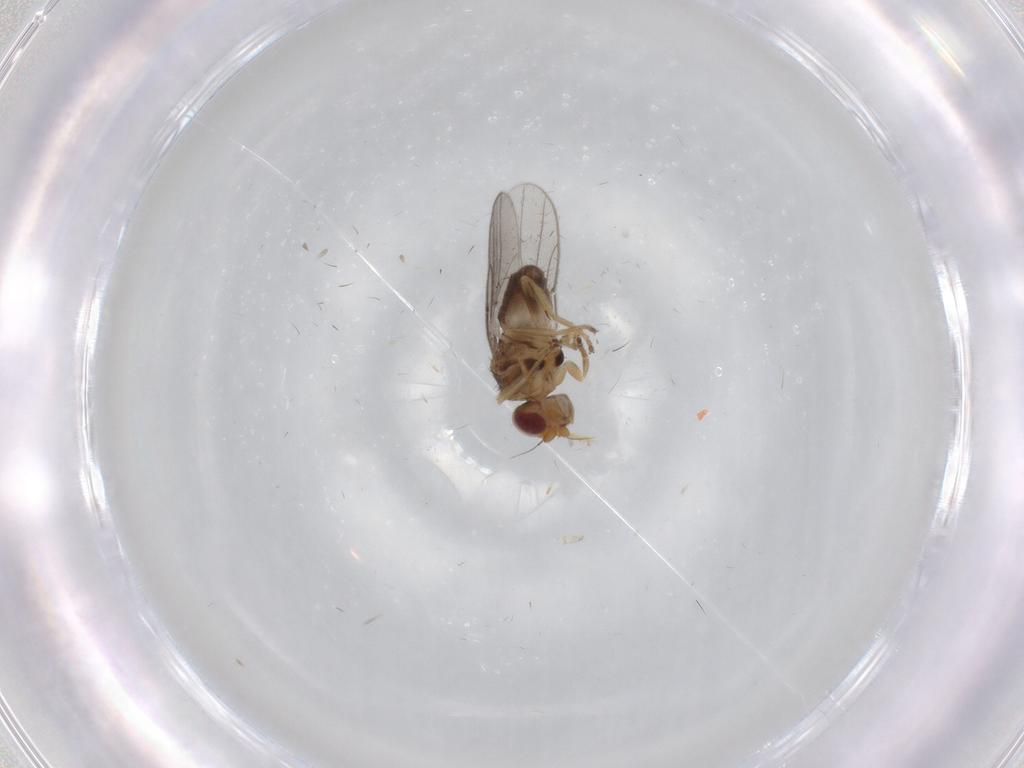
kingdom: Animalia
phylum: Arthropoda
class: Insecta
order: Diptera
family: Chloropidae
